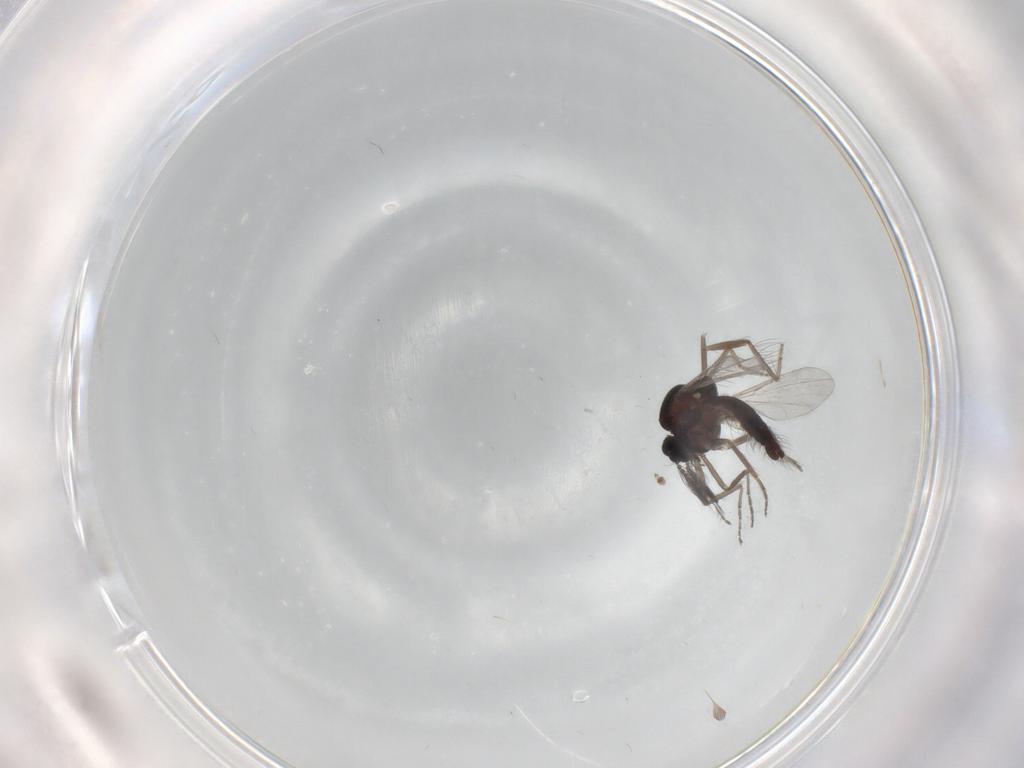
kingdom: Animalia
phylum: Arthropoda
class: Insecta
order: Diptera
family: Ceratopogonidae
